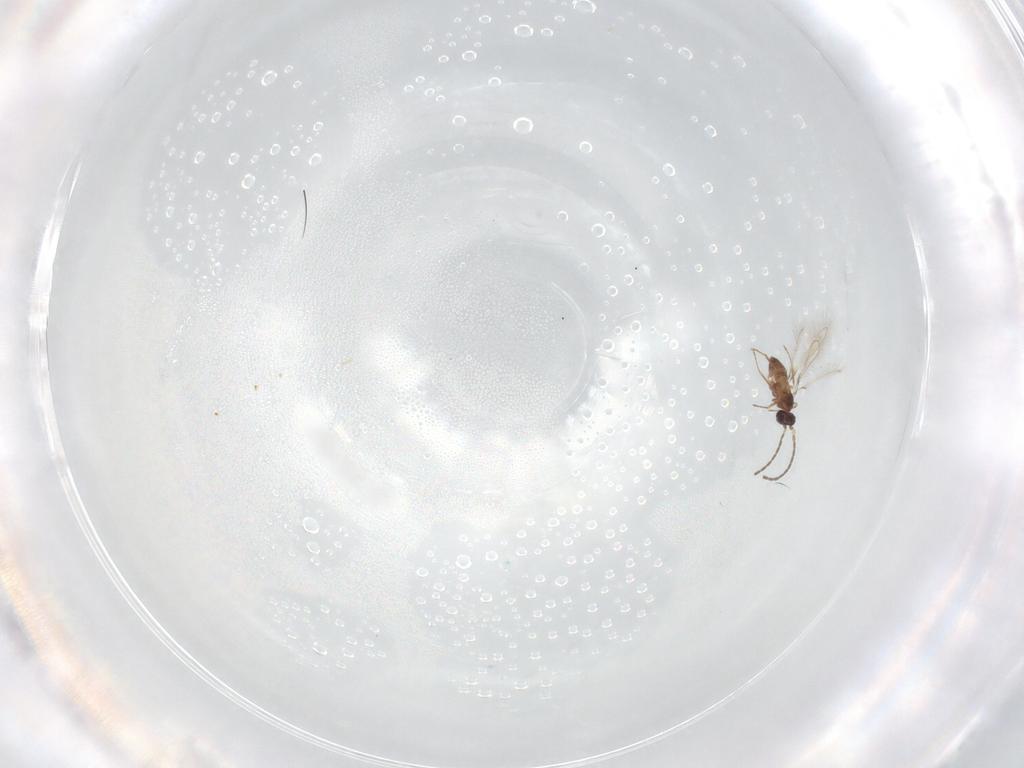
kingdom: Animalia
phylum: Arthropoda
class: Insecta
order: Hymenoptera
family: Mymaridae
